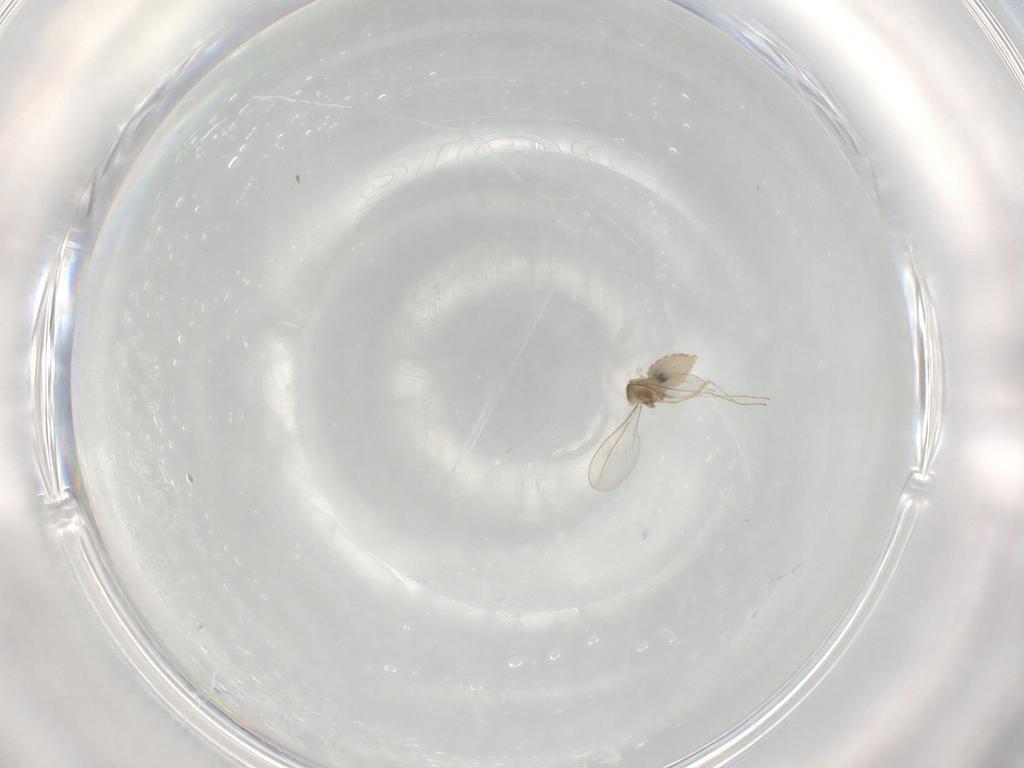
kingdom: Animalia
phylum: Arthropoda
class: Insecta
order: Diptera
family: Cecidomyiidae
